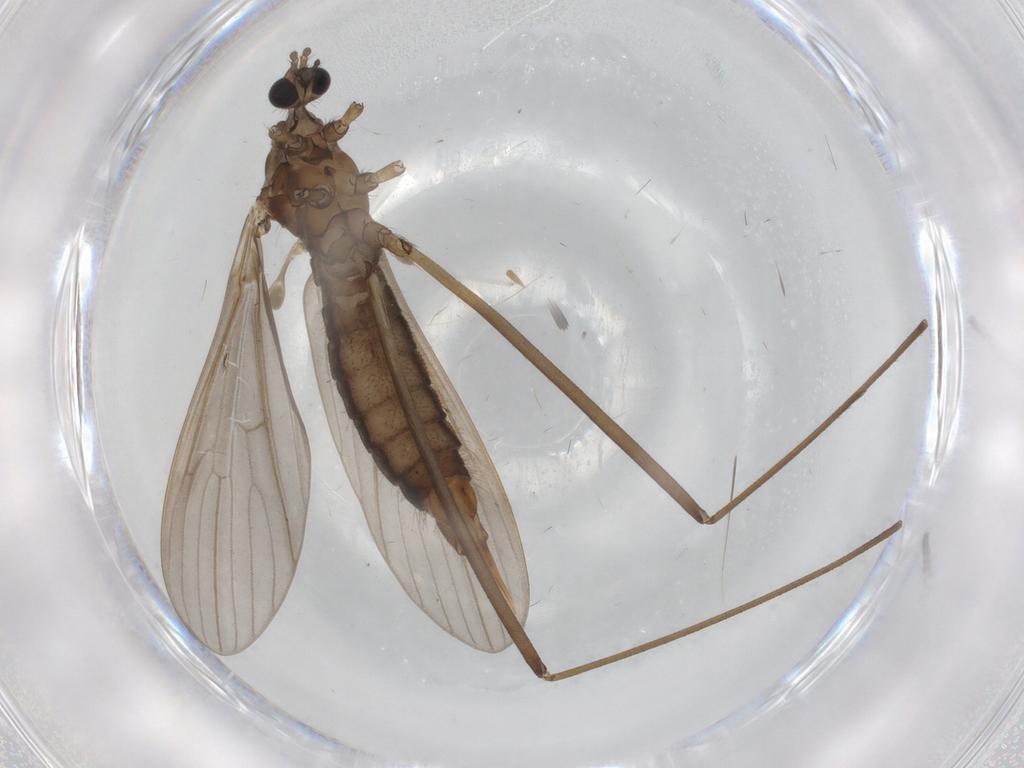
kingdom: Animalia
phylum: Arthropoda
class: Insecta
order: Diptera
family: Limoniidae
